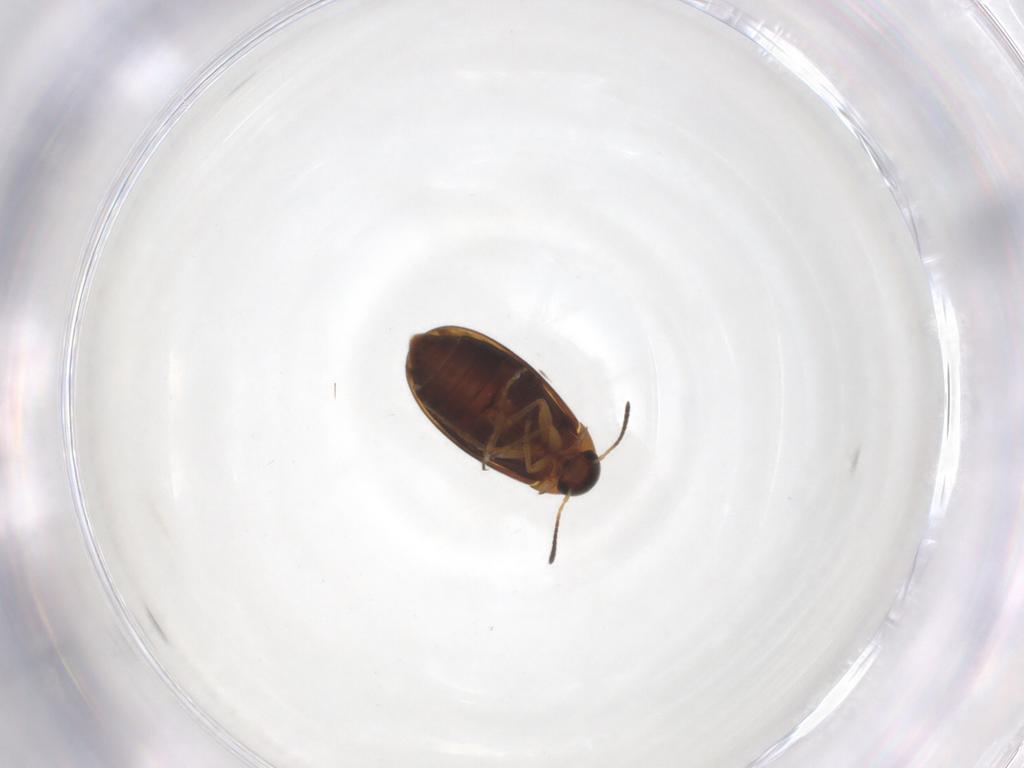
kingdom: Animalia
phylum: Arthropoda
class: Insecta
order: Coleoptera
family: Scraptiidae
